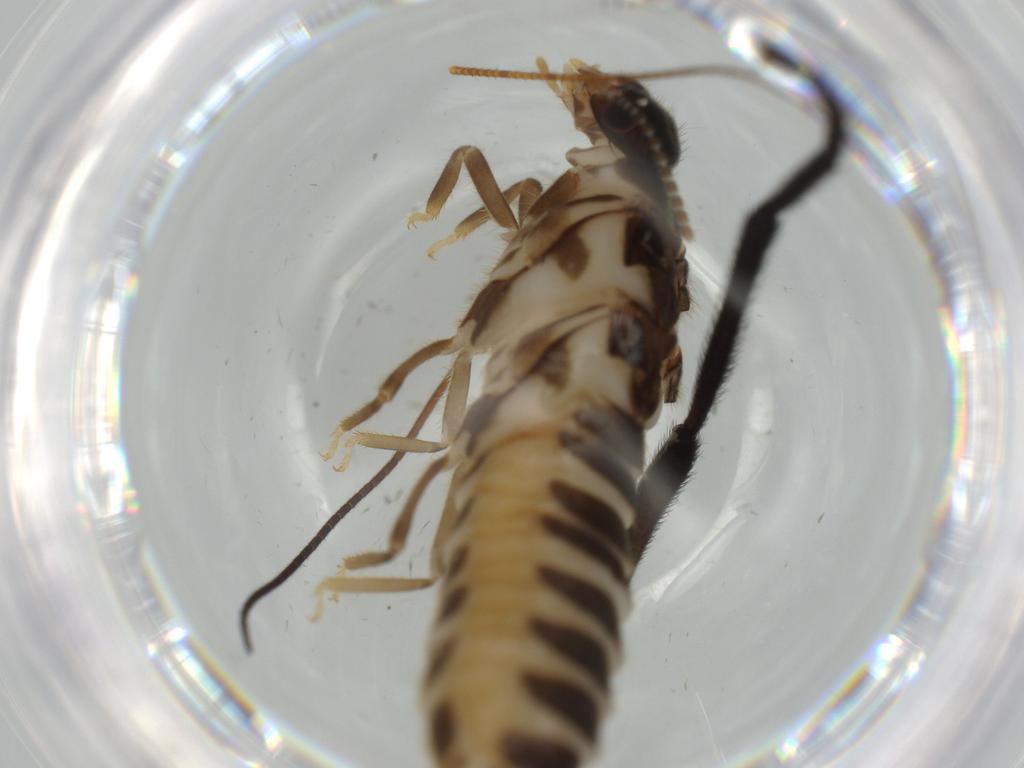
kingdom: Animalia
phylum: Arthropoda
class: Insecta
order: Diptera
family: Sciaridae
